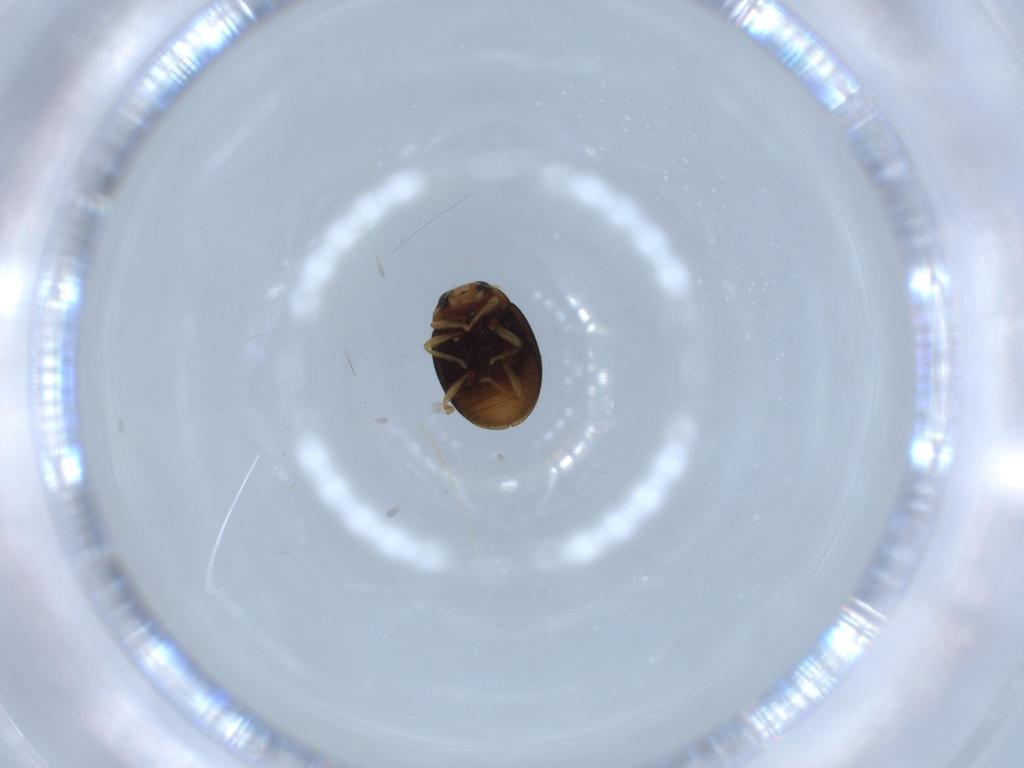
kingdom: Animalia
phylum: Arthropoda
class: Insecta
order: Coleoptera
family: Coccinellidae
